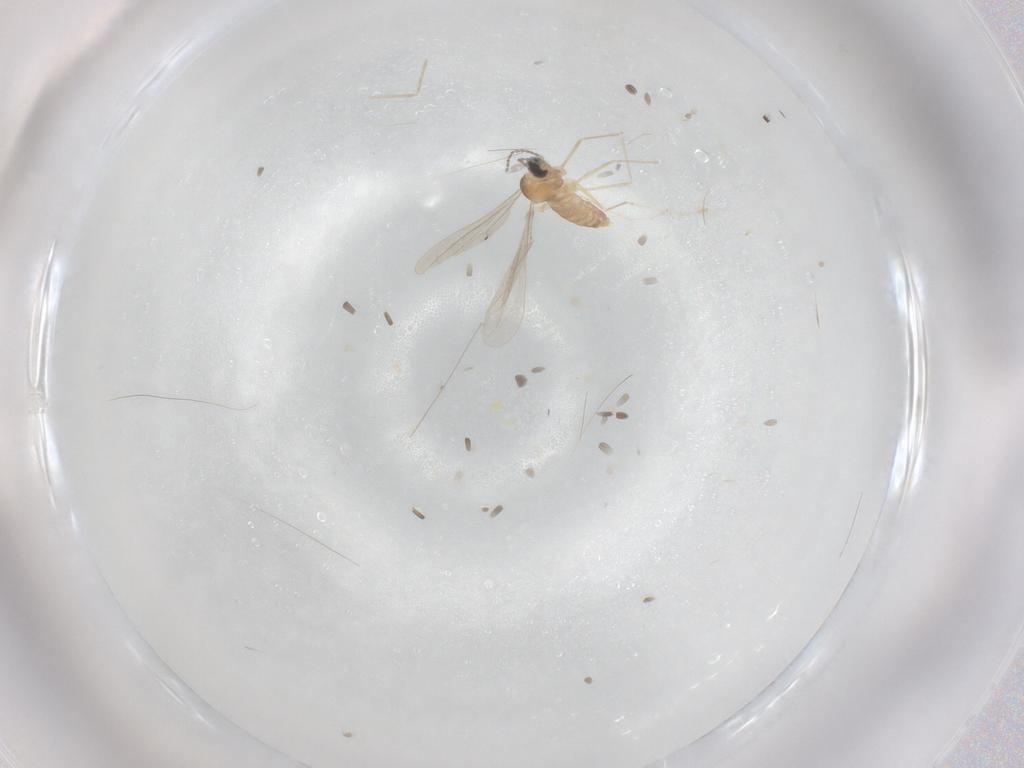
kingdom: Animalia
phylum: Arthropoda
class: Insecta
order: Diptera
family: Cecidomyiidae
